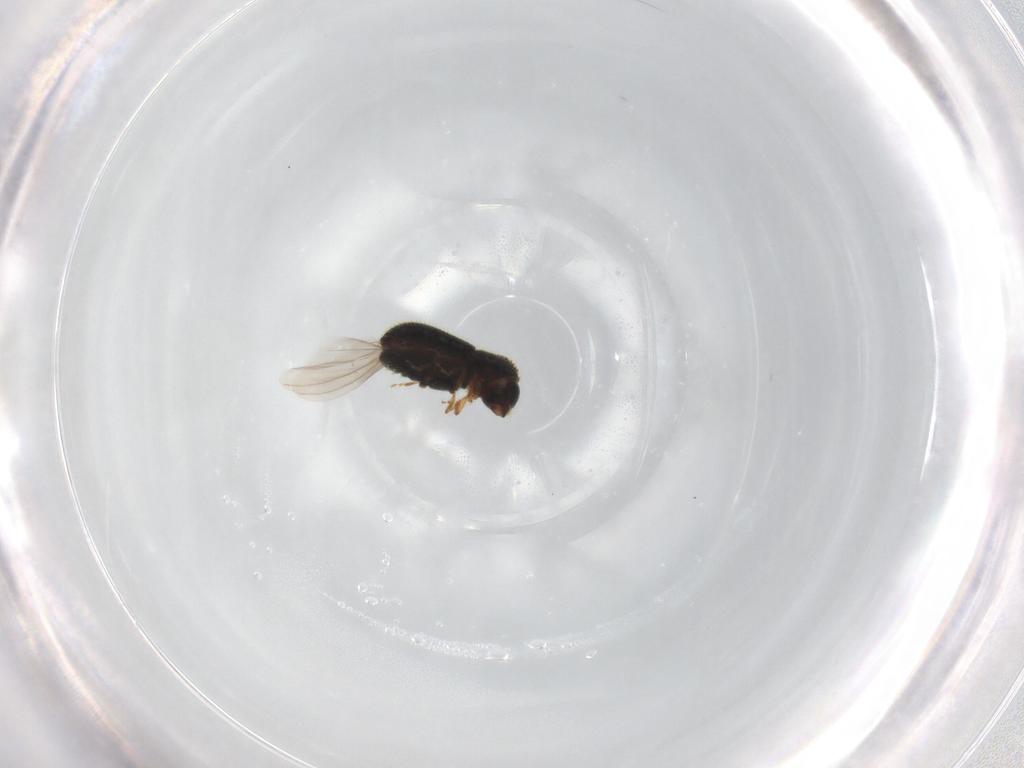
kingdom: Animalia
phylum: Arthropoda
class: Insecta
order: Coleoptera
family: Curculionidae
